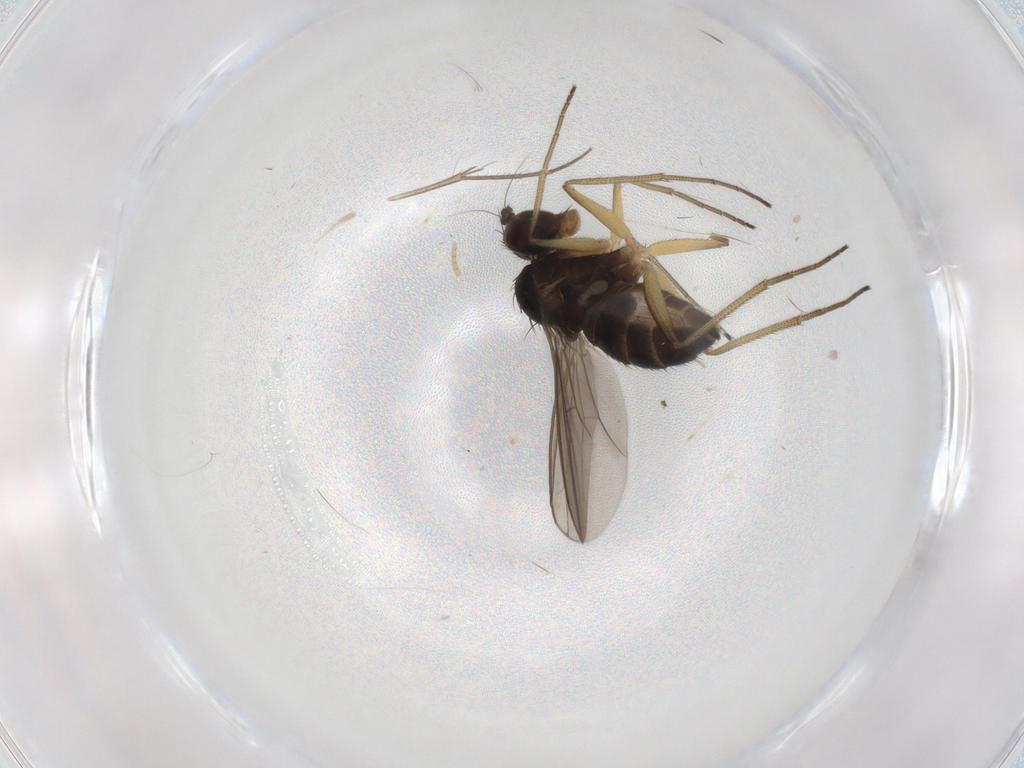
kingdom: Animalia
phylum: Arthropoda
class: Insecta
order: Diptera
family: Dolichopodidae
